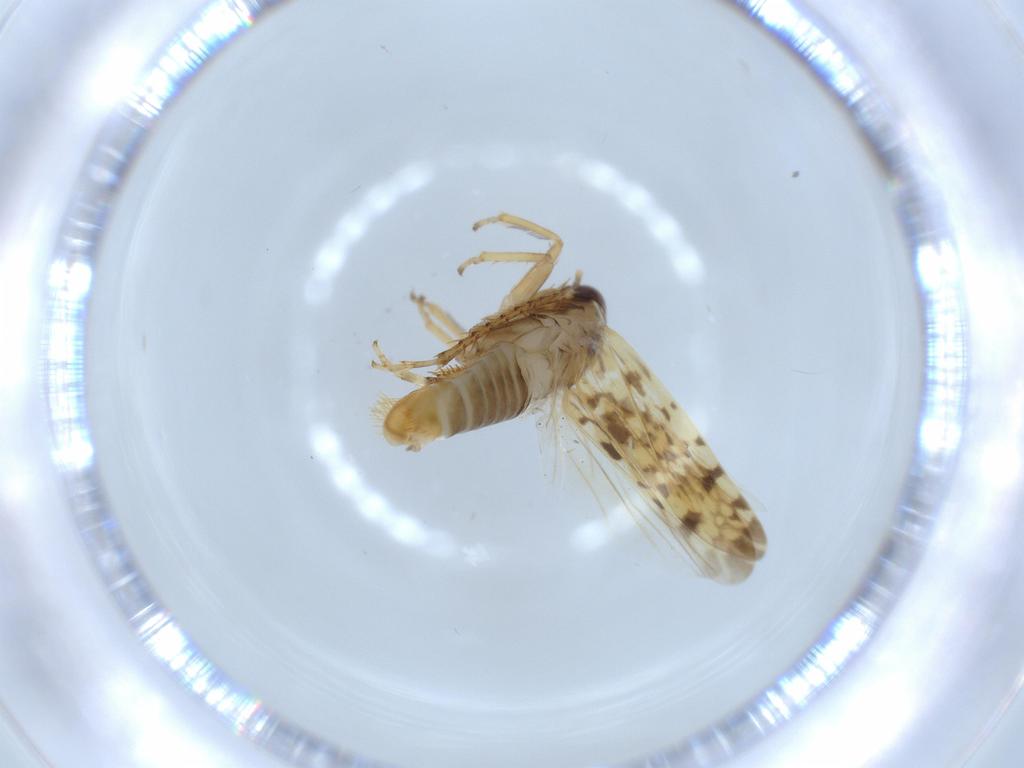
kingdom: Animalia
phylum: Arthropoda
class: Insecta
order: Hemiptera
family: Cicadellidae
